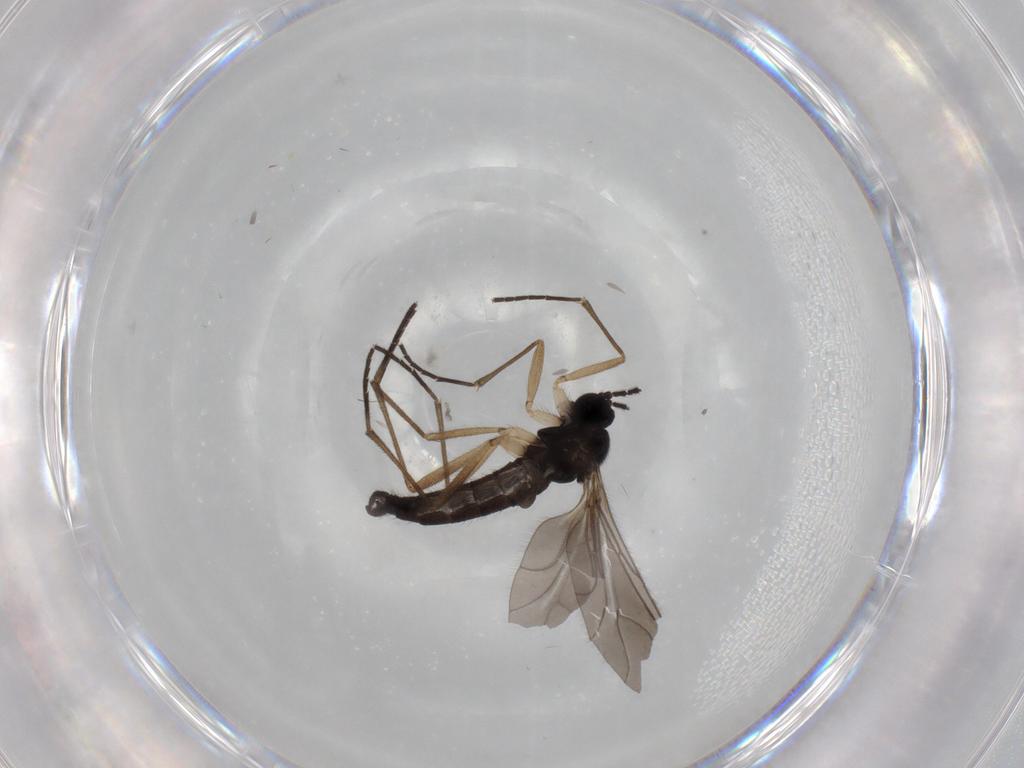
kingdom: Animalia
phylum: Arthropoda
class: Insecta
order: Diptera
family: Sciaridae
